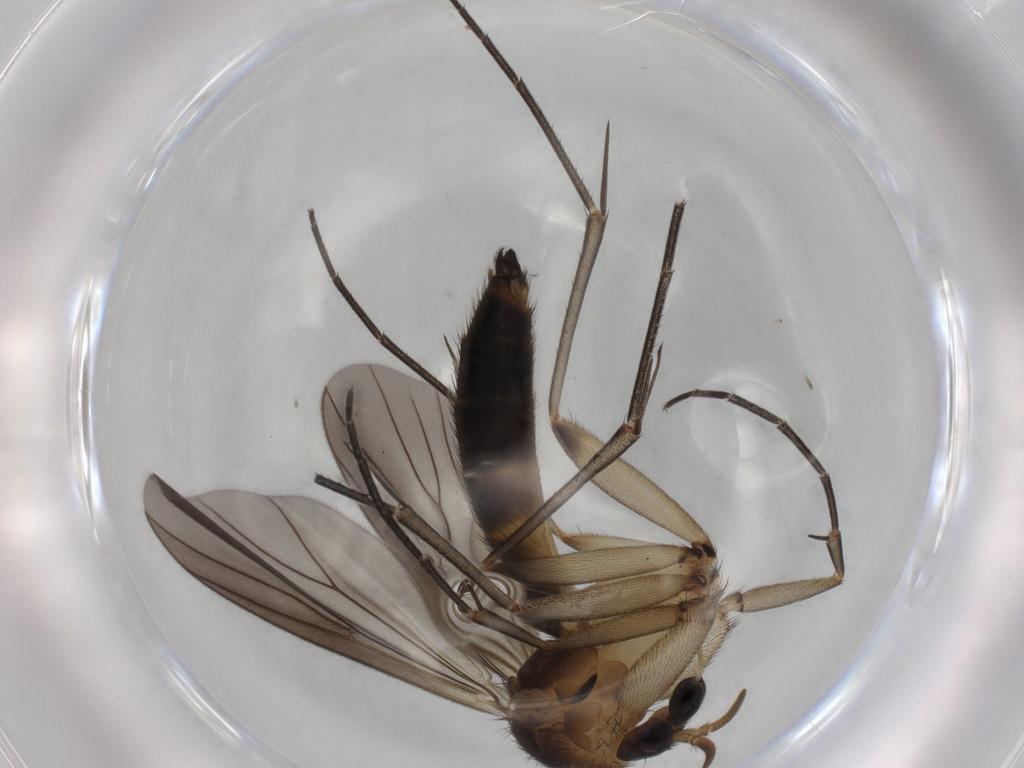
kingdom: Animalia
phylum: Arthropoda
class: Insecta
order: Diptera
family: Mycetophilidae
